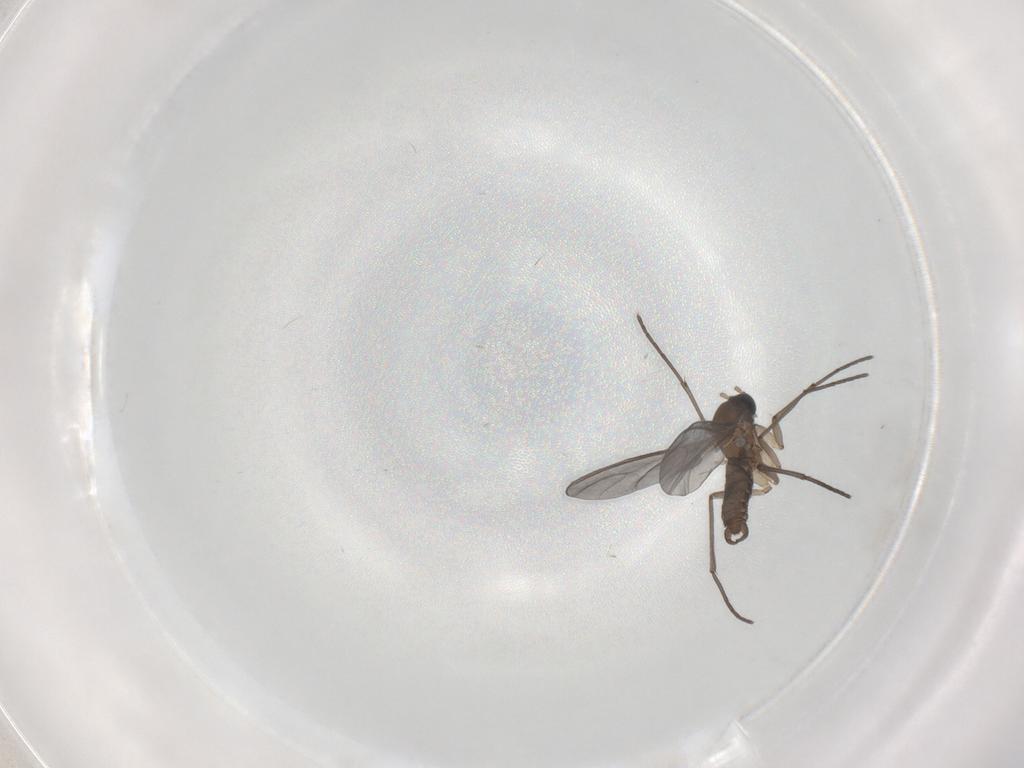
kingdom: Animalia
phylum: Arthropoda
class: Insecta
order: Diptera
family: Sciaridae
